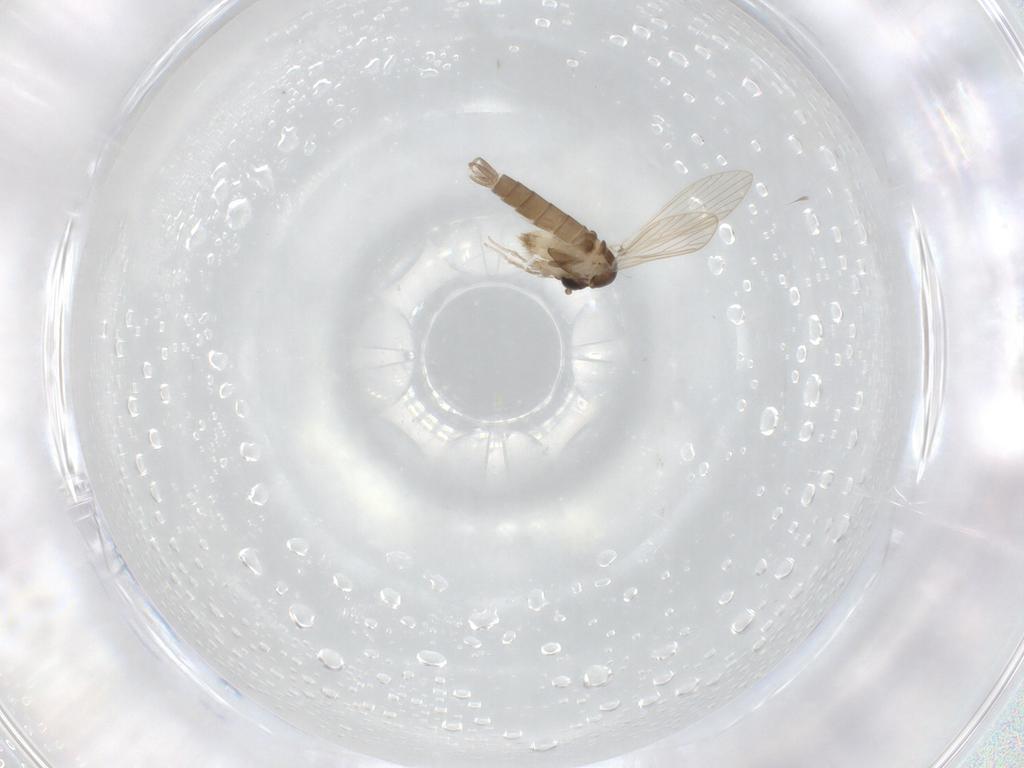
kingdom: Animalia
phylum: Arthropoda
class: Insecta
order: Diptera
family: Psychodidae
